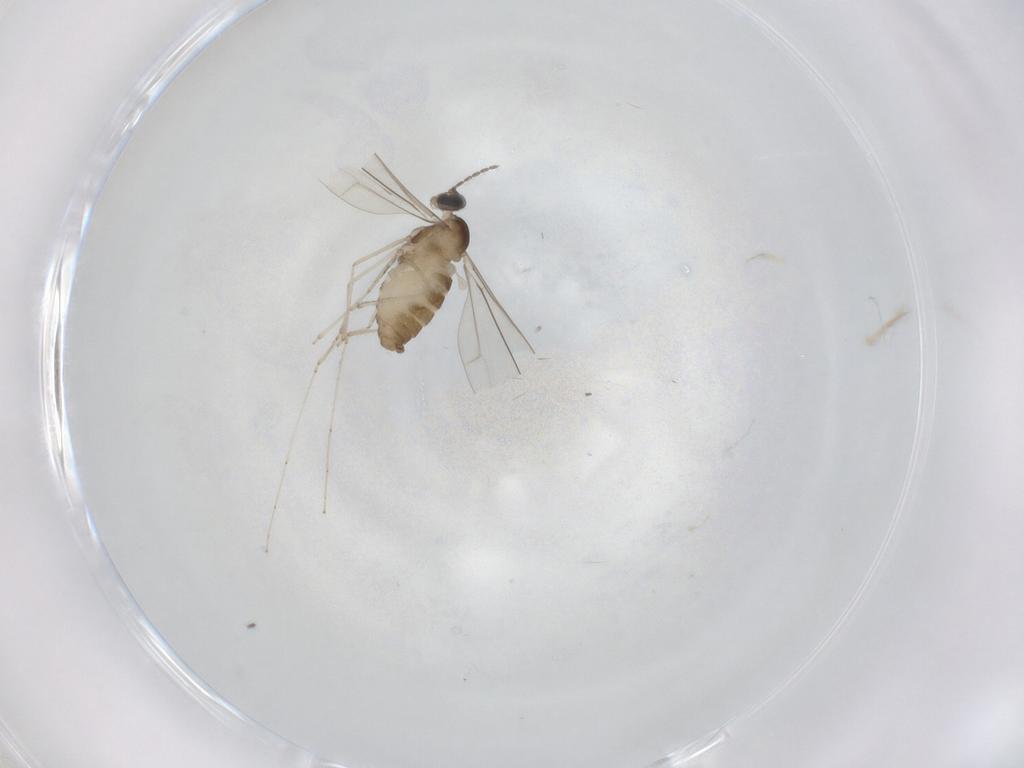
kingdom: Animalia
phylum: Arthropoda
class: Insecta
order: Diptera
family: Cecidomyiidae
